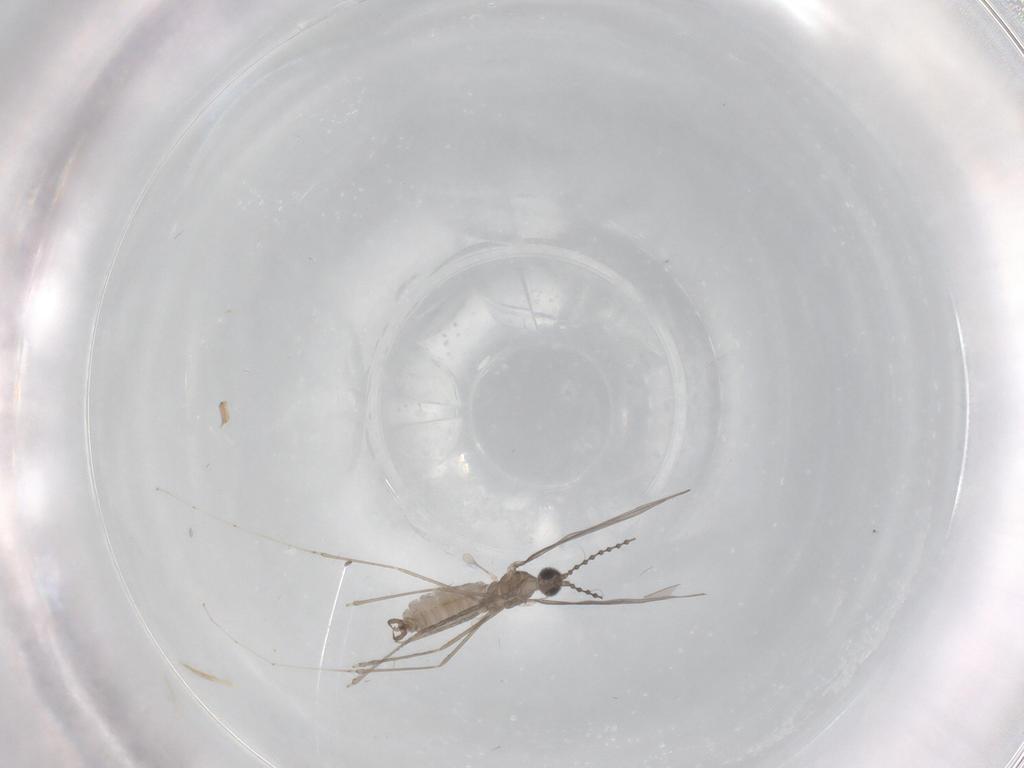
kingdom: Animalia
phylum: Arthropoda
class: Insecta
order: Diptera
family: Cecidomyiidae
